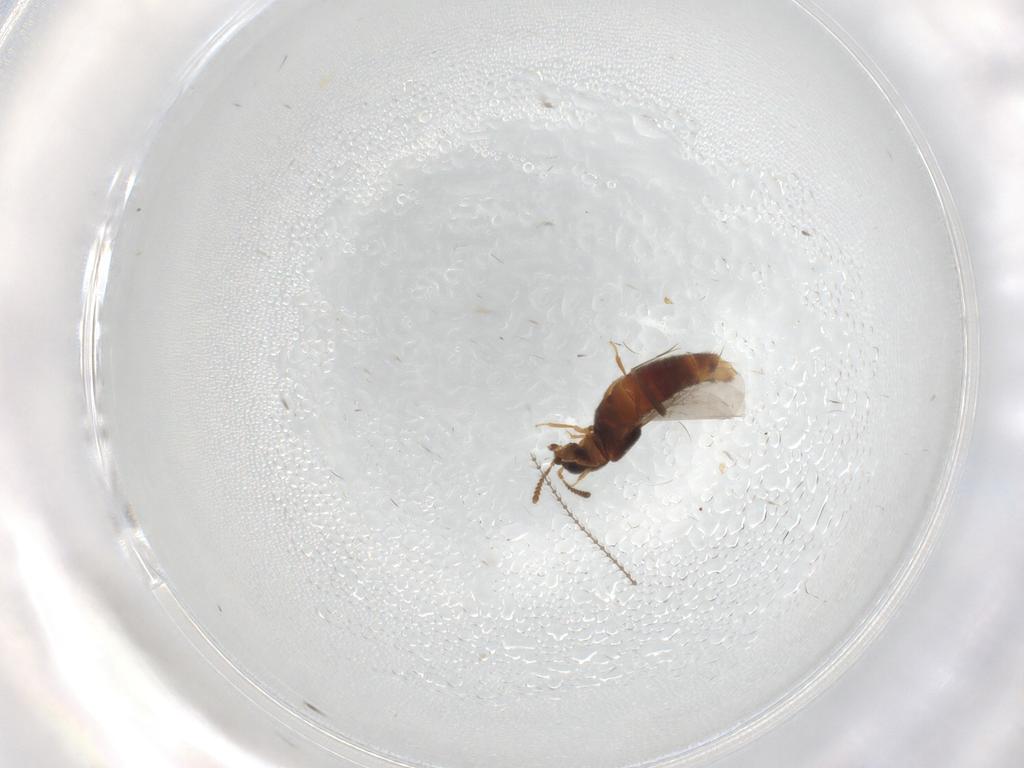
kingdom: Animalia
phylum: Arthropoda
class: Insecta
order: Coleoptera
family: Staphylinidae
